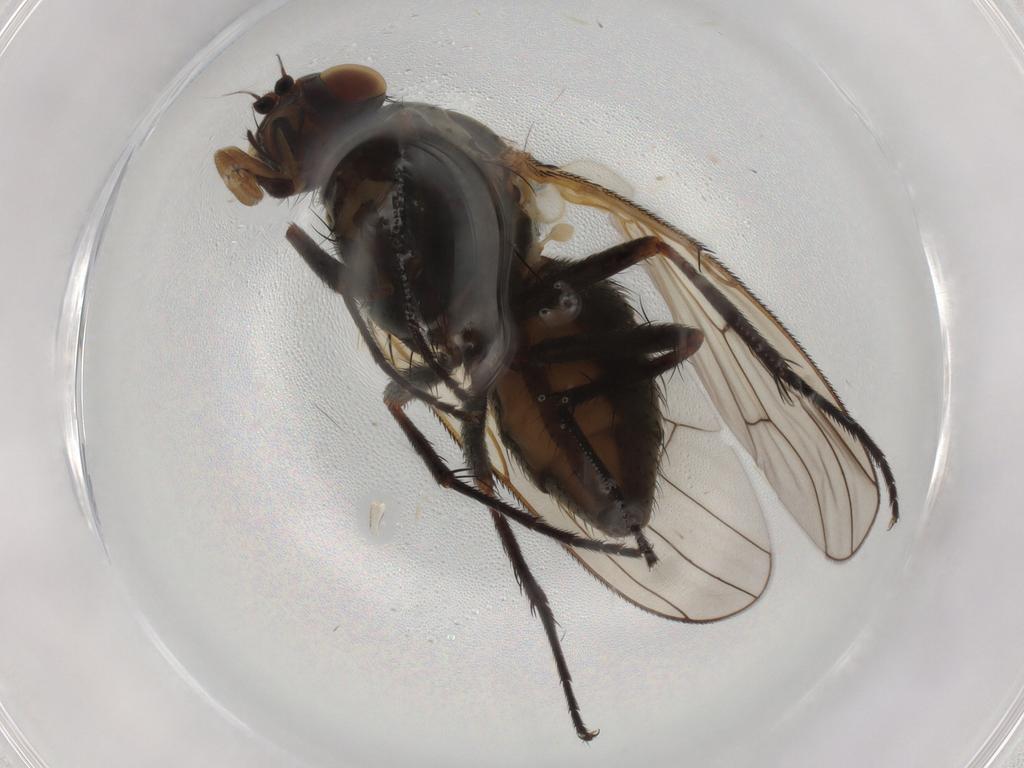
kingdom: Animalia
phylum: Arthropoda
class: Insecta
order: Diptera
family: Anthomyiidae
